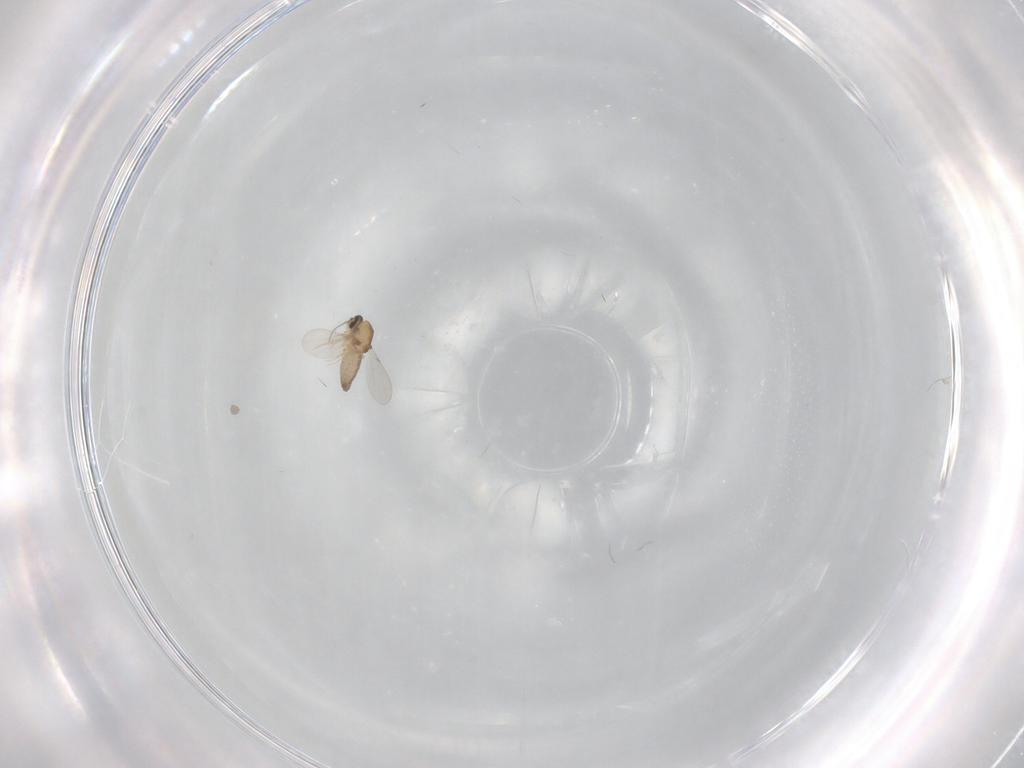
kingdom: Animalia
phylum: Arthropoda
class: Insecta
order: Diptera
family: Ceratopogonidae
